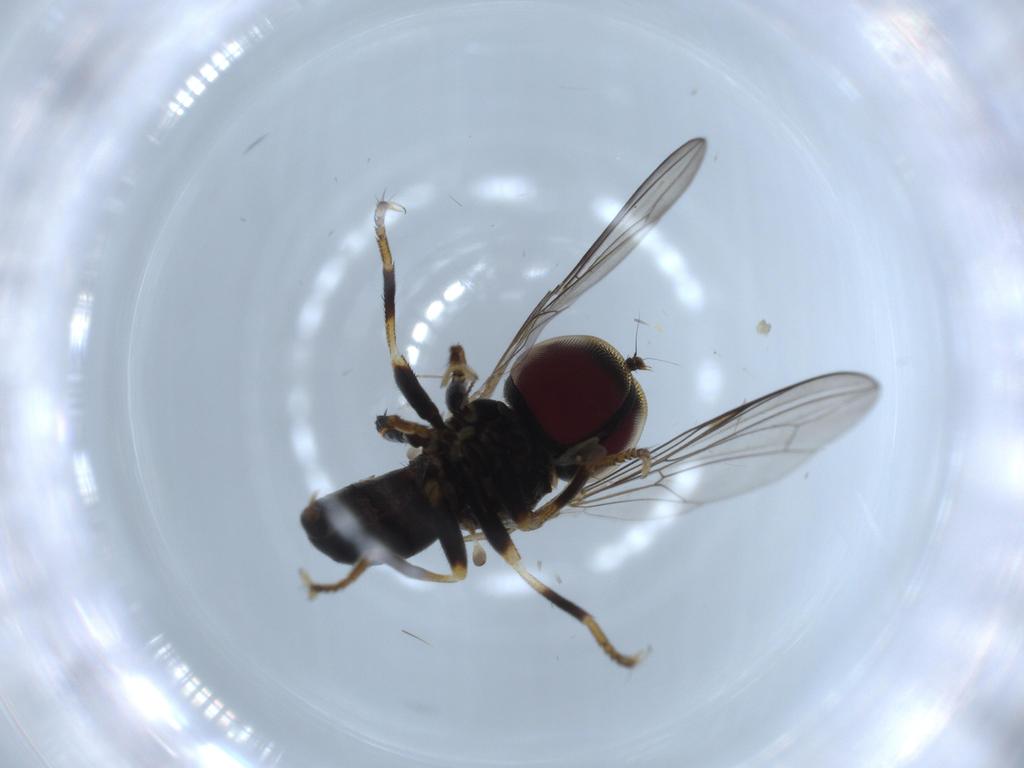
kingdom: Animalia
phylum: Arthropoda
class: Insecta
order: Diptera
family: Pipunculidae
